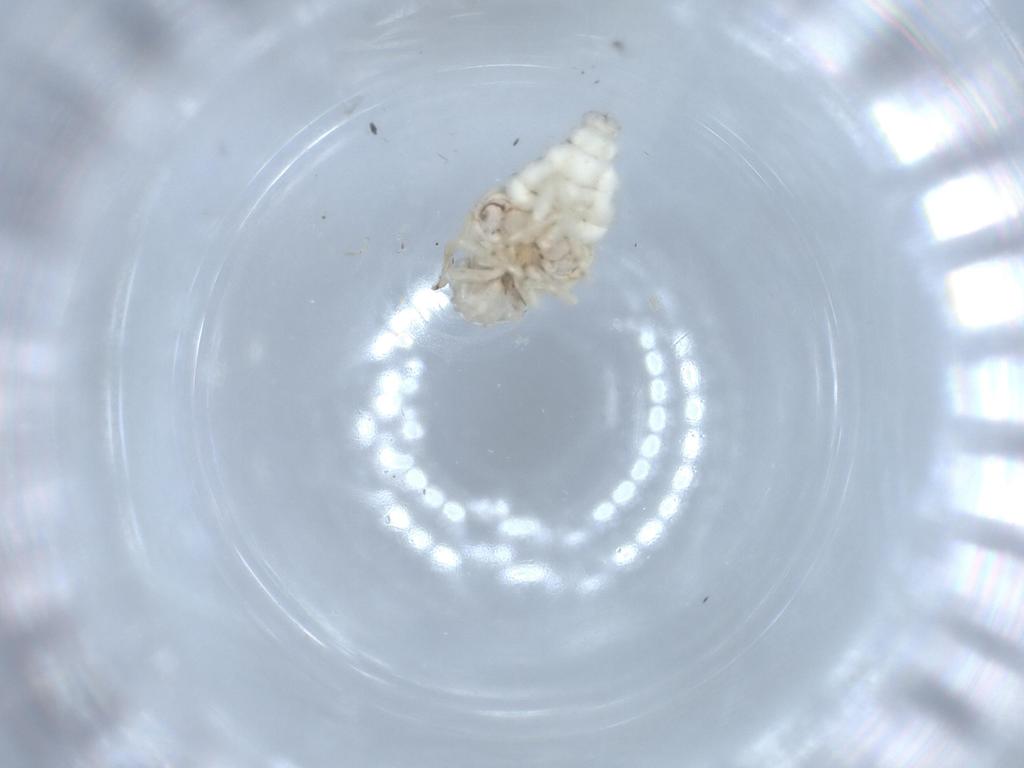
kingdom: Animalia
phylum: Arthropoda
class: Insecta
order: Hemiptera
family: Nogodinidae
